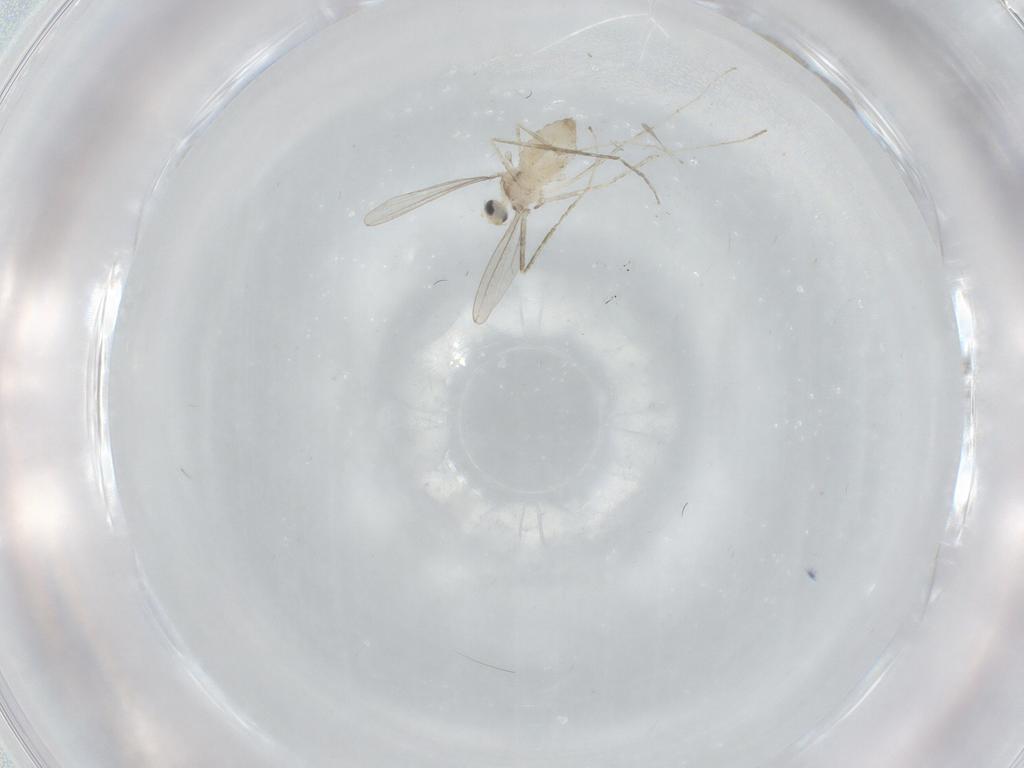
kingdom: Animalia
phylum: Arthropoda
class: Insecta
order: Diptera
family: Cecidomyiidae
